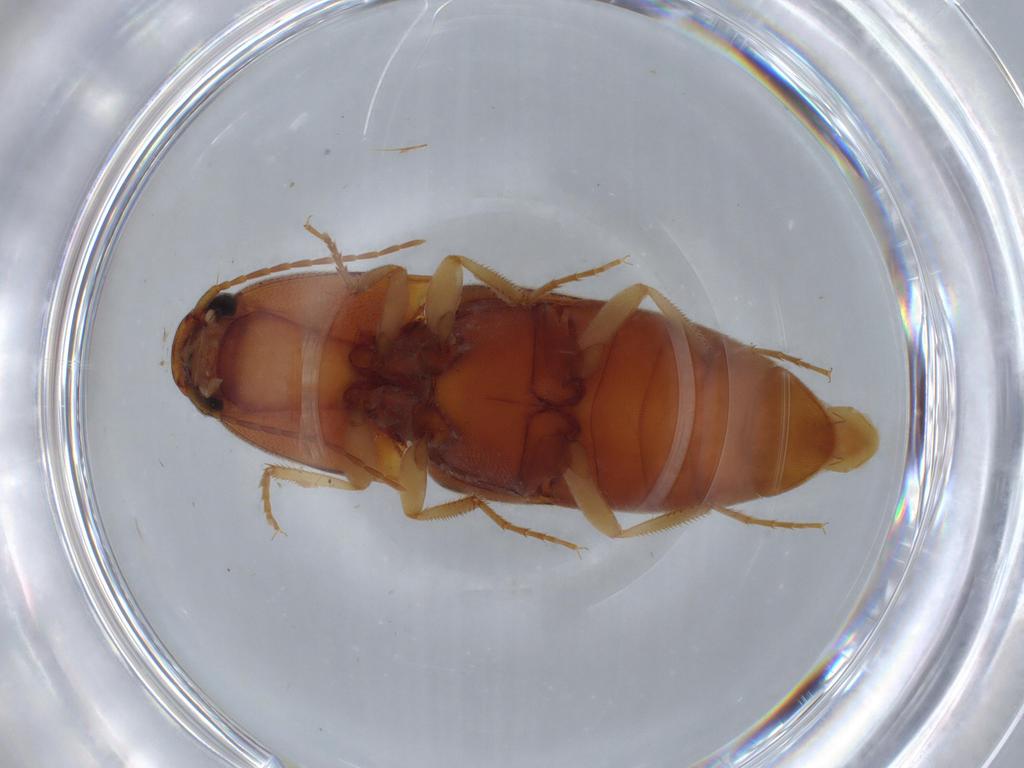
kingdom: Animalia
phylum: Arthropoda
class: Insecta
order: Coleoptera
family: Elateridae
